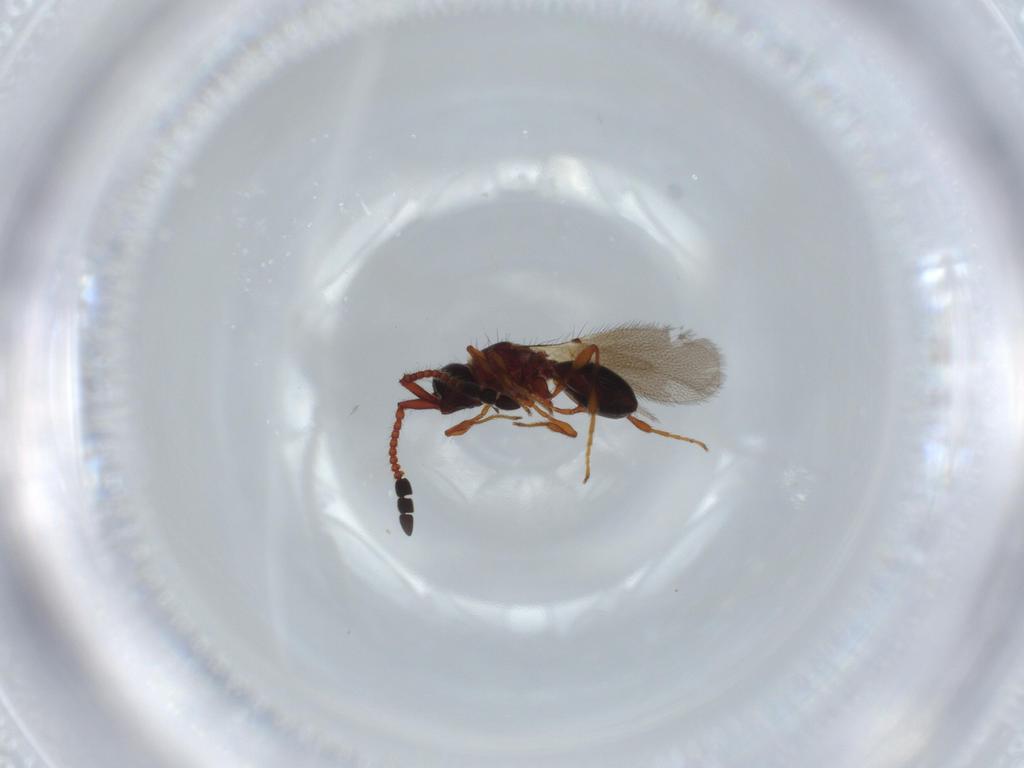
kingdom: Animalia
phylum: Arthropoda
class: Insecta
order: Hymenoptera
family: Diapriidae
